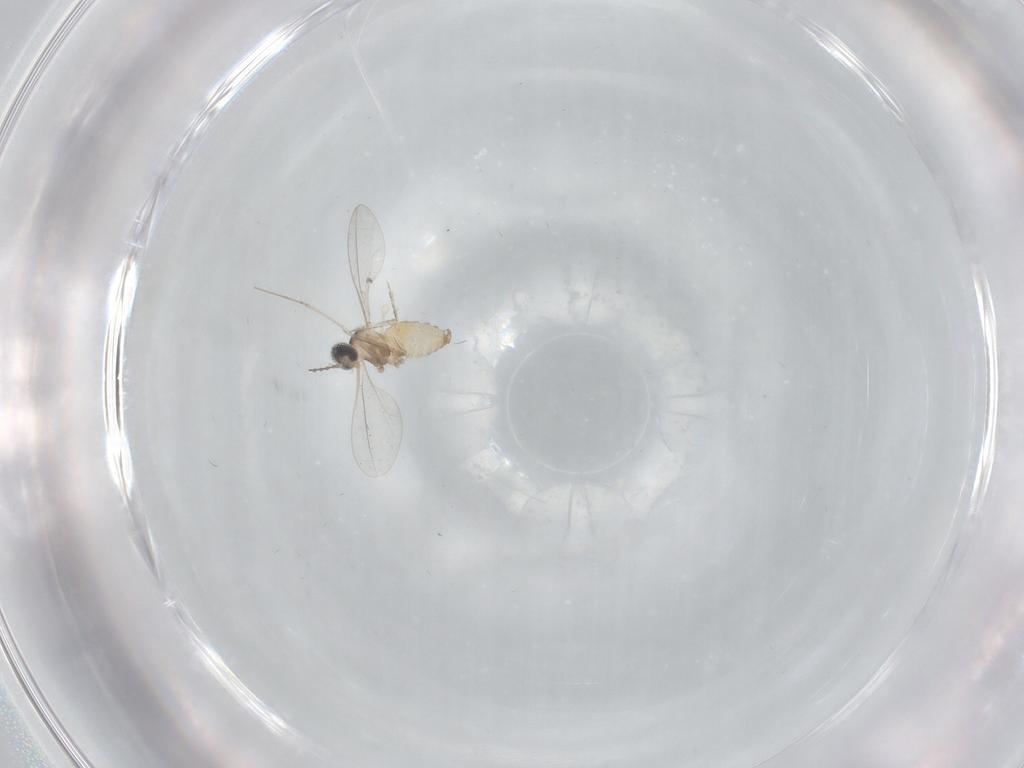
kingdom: Animalia
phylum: Arthropoda
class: Insecta
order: Diptera
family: Cecidomyiidae
